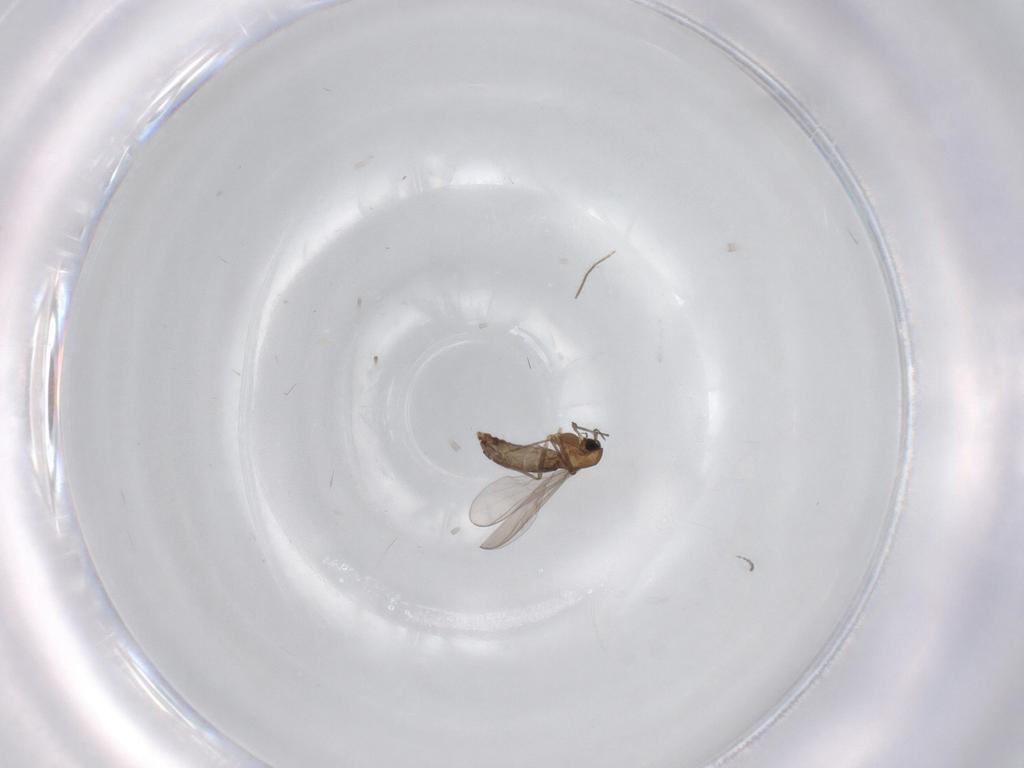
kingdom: Animalia
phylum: Arthropoda
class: Insecta
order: Diptera
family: Chironomidae
